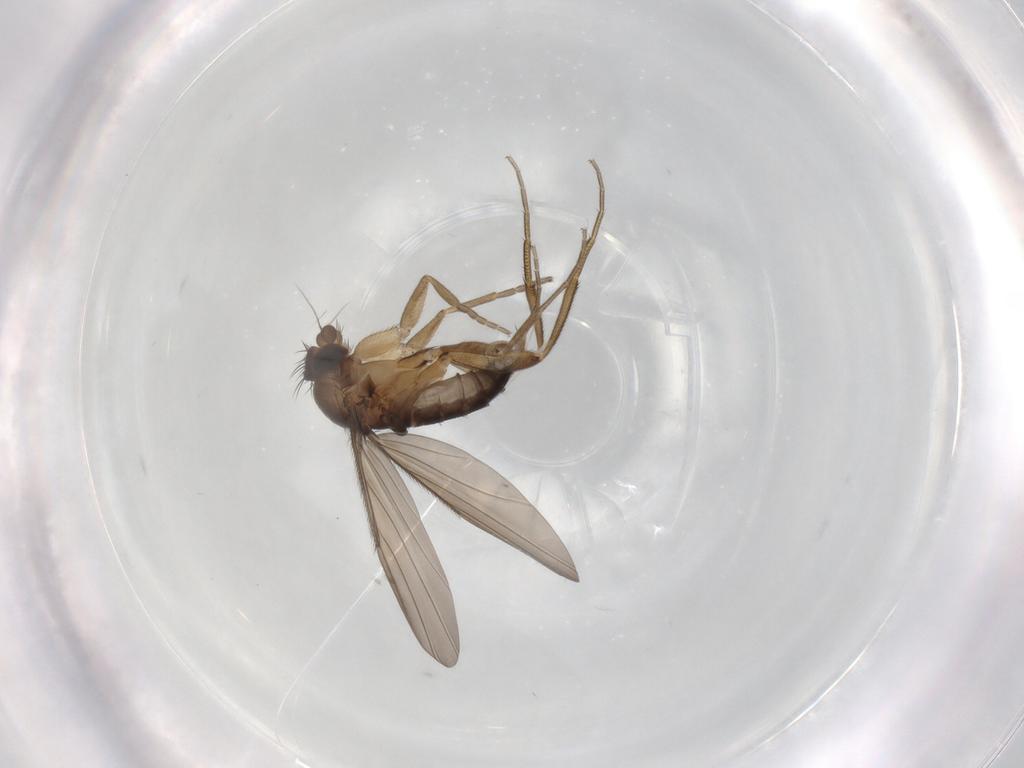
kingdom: Animalia
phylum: Arthropoda
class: Insecta
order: Diptera
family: Phoridae
